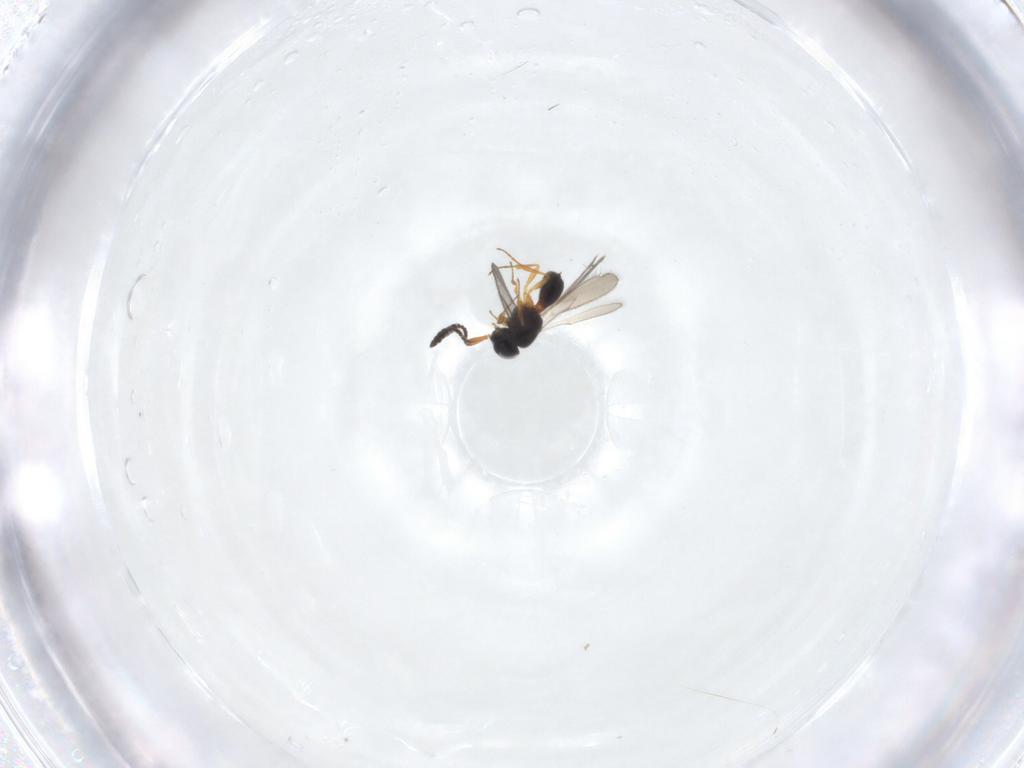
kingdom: Animalia
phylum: Arthropoda
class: Insecta
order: Hymenoptera
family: Scelionidae
